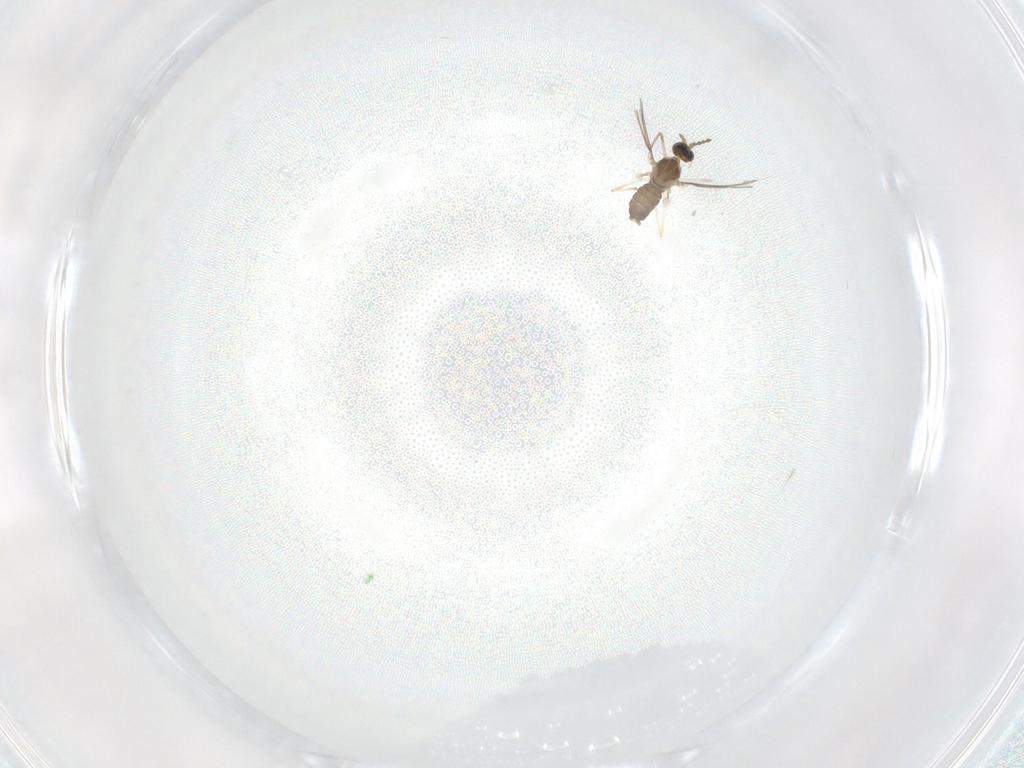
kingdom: Animalia
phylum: Arthropoda
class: Insecta
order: Diptera
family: Cecidomyiidae
